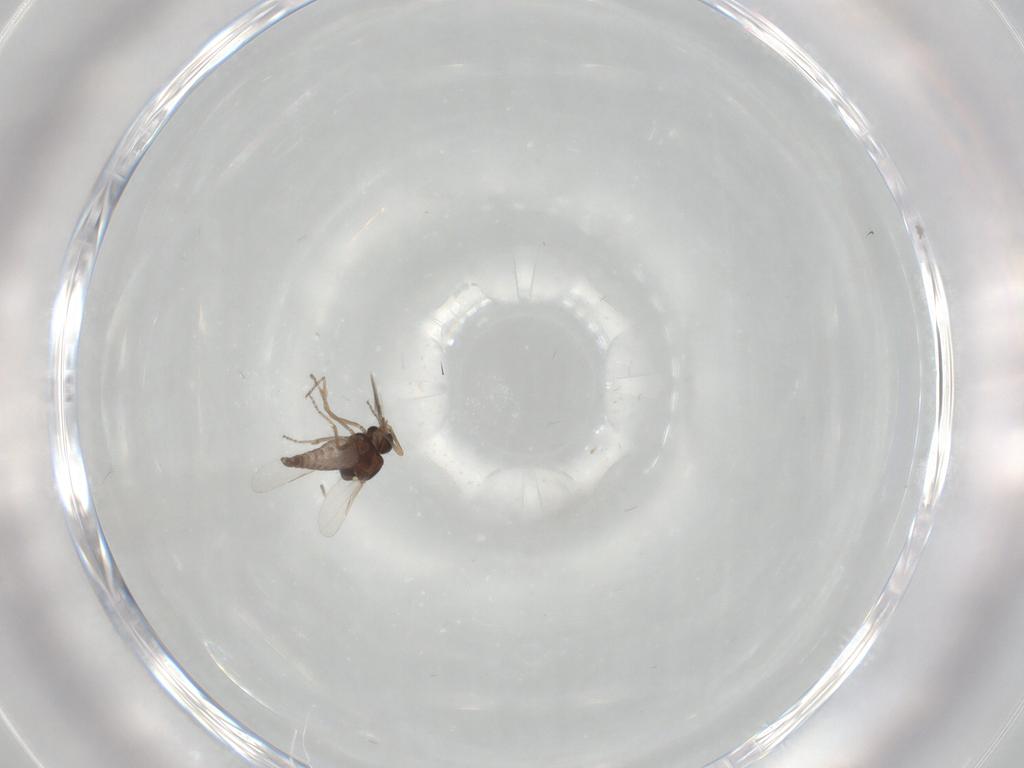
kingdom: Animalia
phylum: Arthropoda
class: Insecta
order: Diptera
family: Ceratopogonidae
